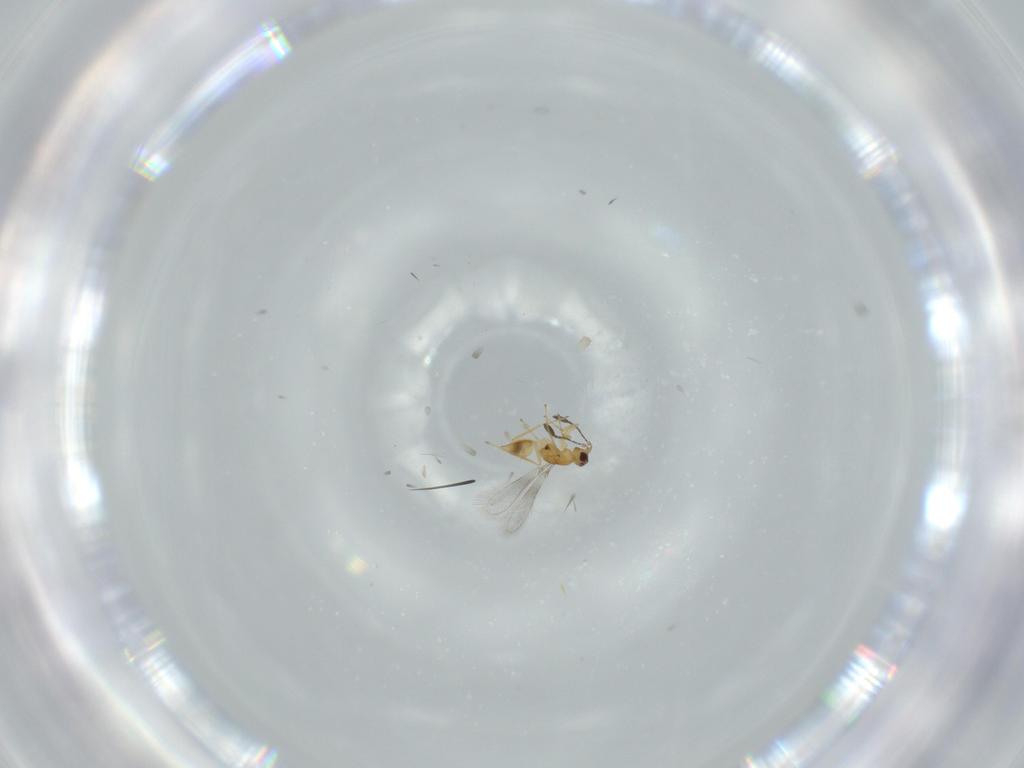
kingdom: Animalia
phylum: Arthropoda
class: Insecta
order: Hymenoptera
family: Mymaridae
